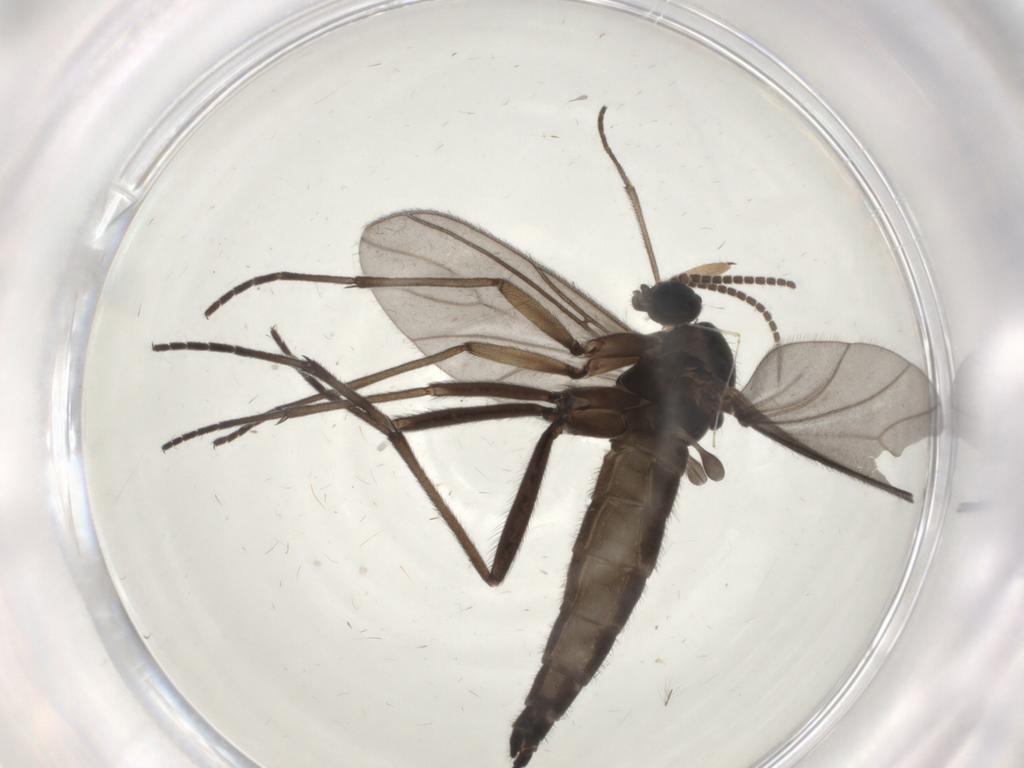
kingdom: Animalia
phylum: Arthropoda
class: Insecta
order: Diptera
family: Sciaridae
